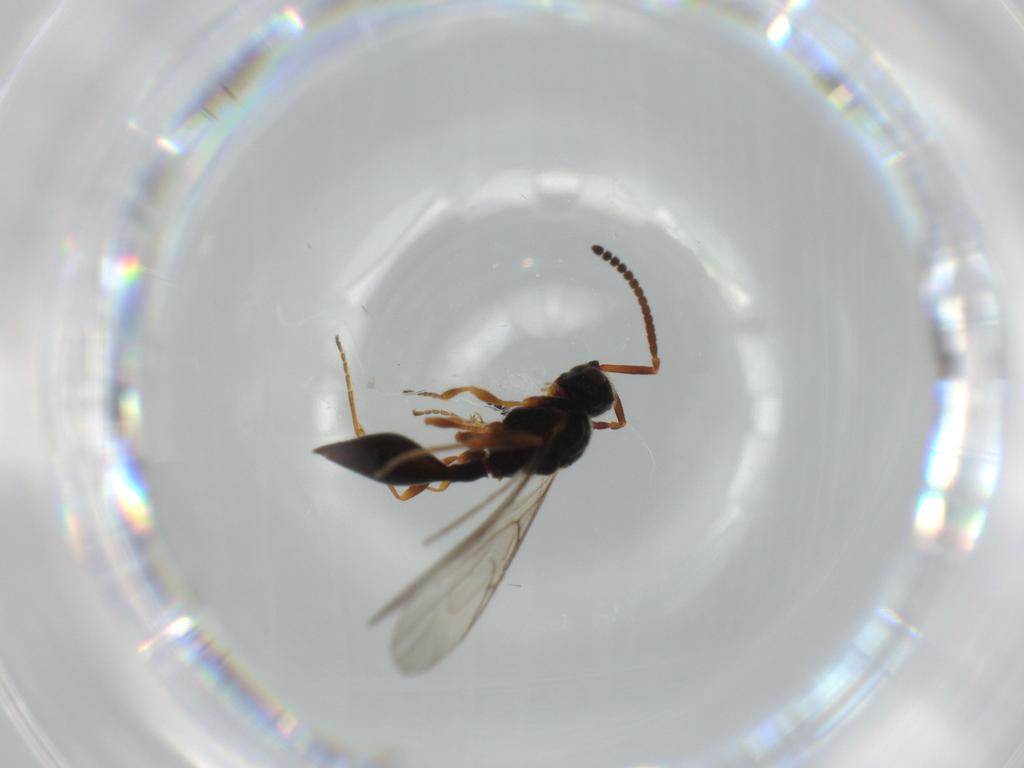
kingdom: Animalia
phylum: Arthropoda
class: Insecta
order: Hymenoptera
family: Diapriidae
